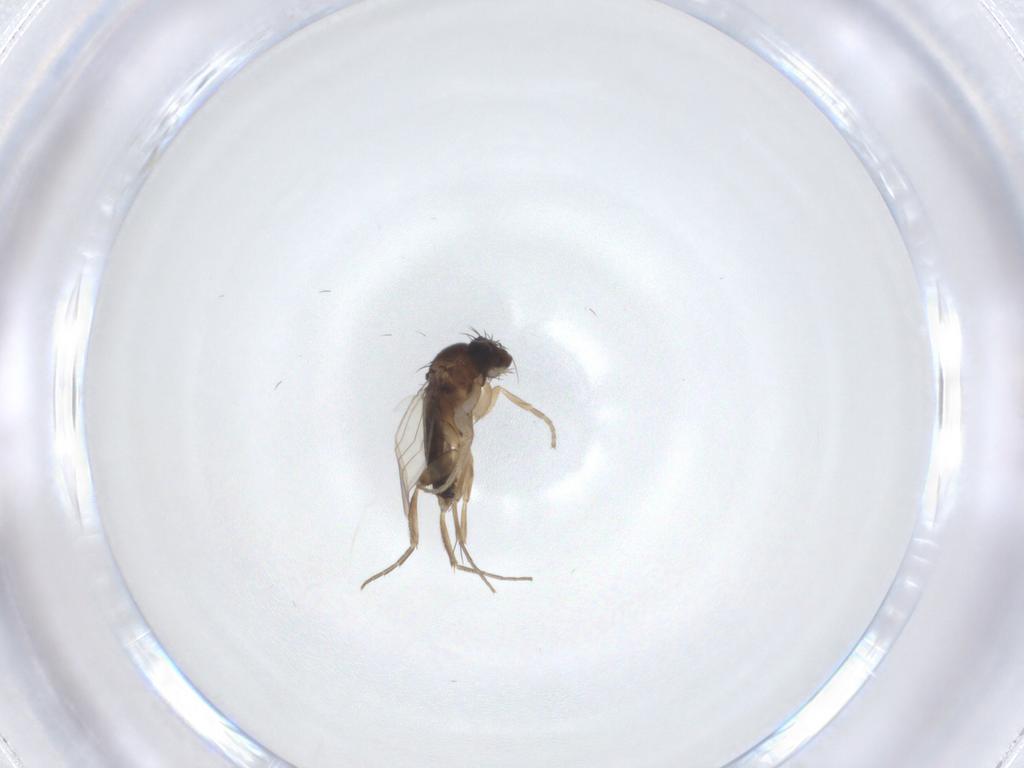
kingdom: Animalia
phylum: Arthropoda
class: Insecta
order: Diptera
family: Phoridae
